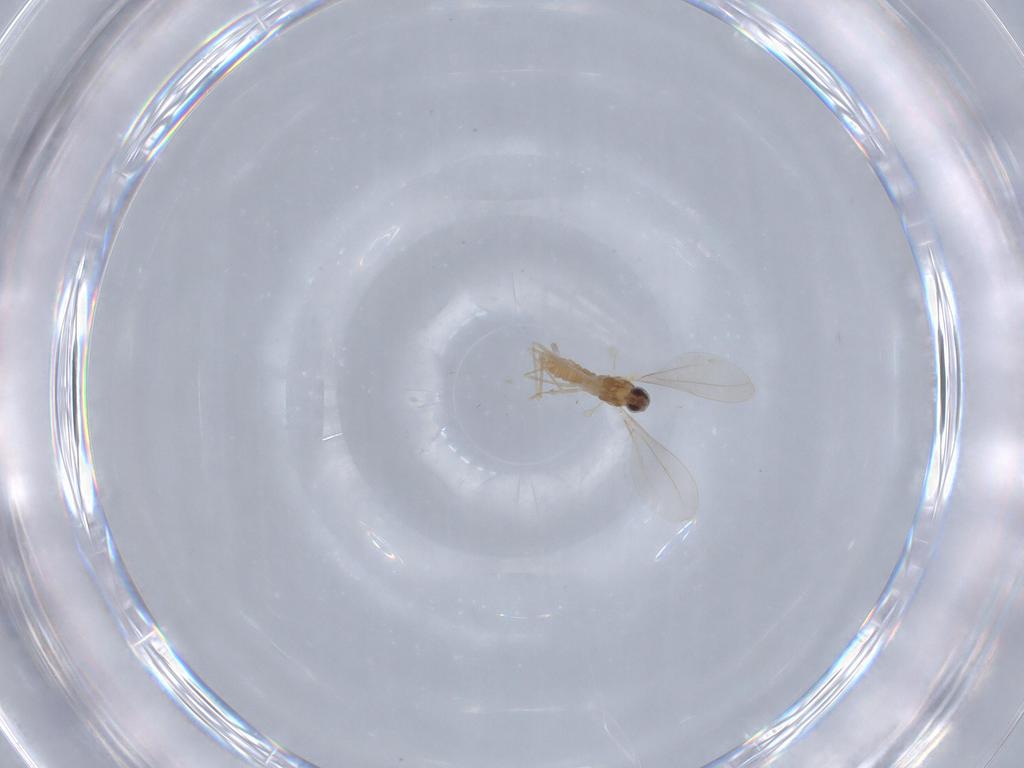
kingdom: Animalia
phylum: Arthropoda
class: Insecta
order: Diptera
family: Cecidomyiidae
